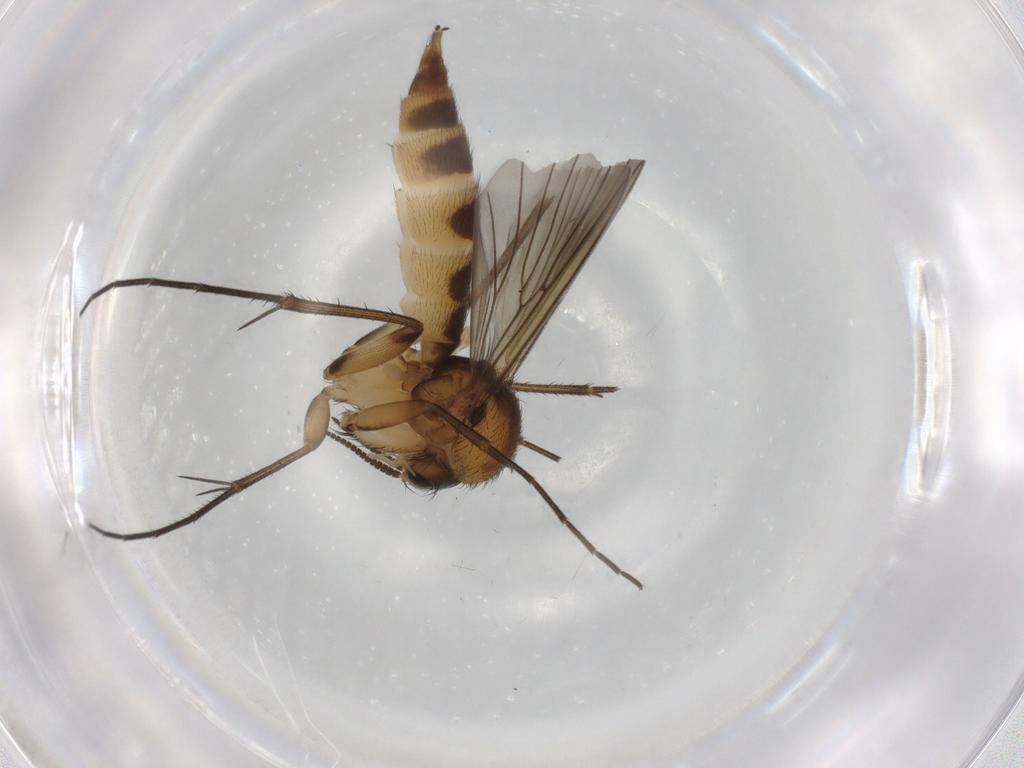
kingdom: Animalia
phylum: Arthropoda
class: Insecta
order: Diptera
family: Mycetophilidae
